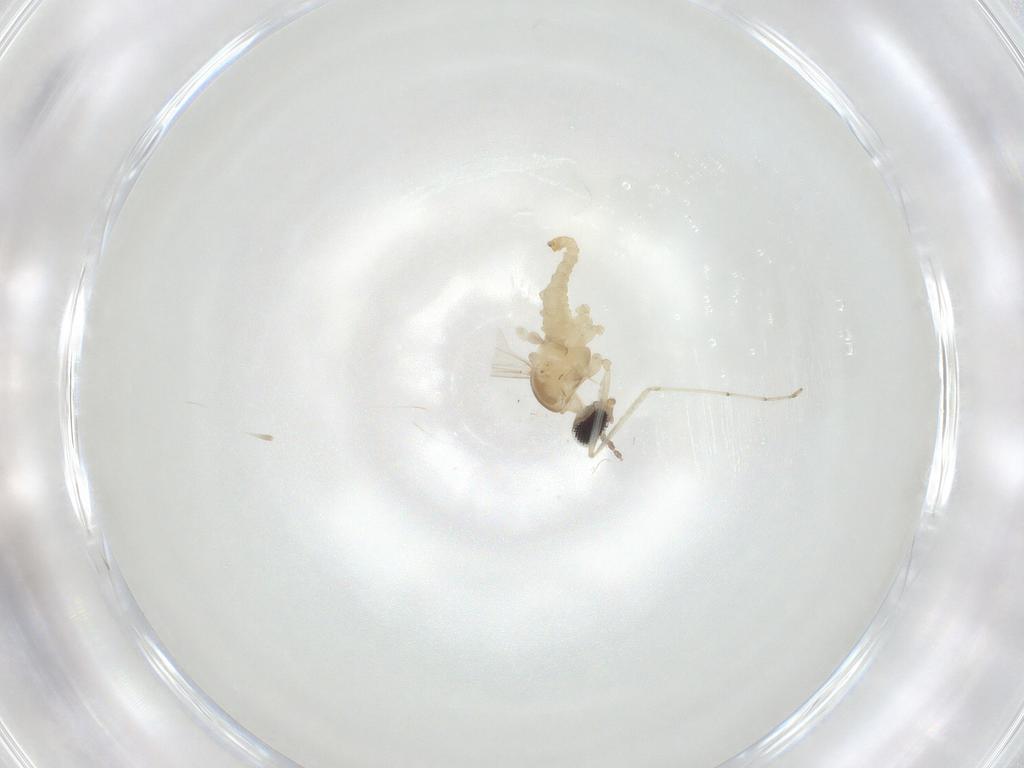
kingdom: Animalia
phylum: Arthropoda
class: Insecta
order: Diptera
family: Cecidomyiidae
